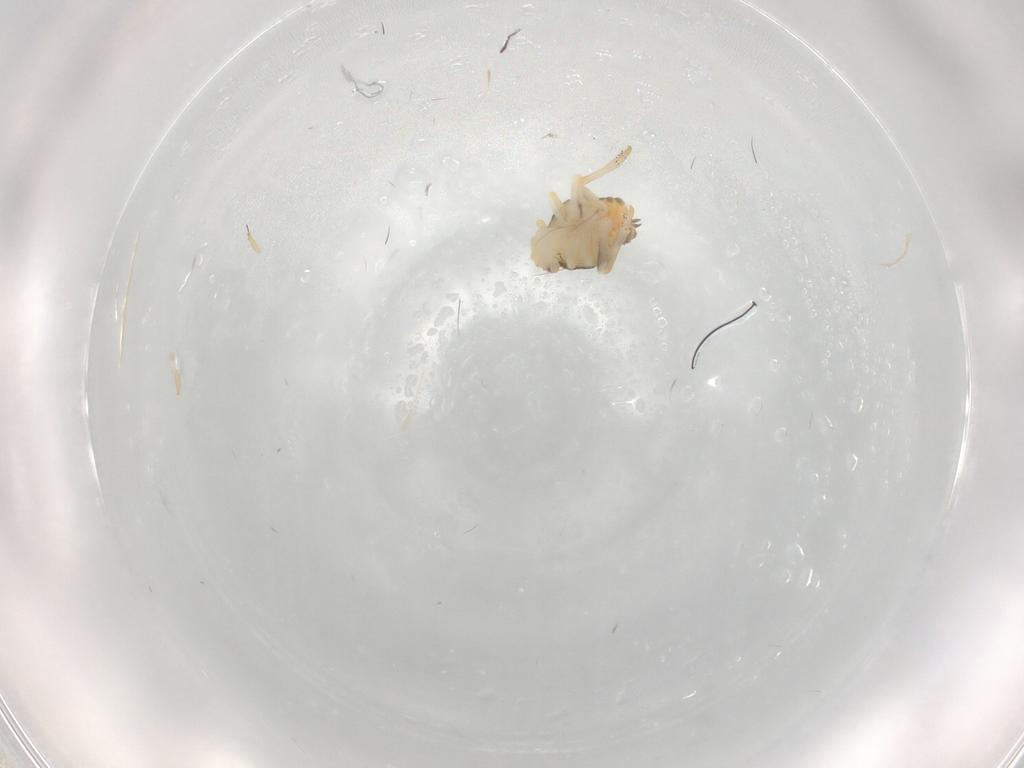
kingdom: Animalia
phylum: Arthropoda
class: Insecta
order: Hemiptera
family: Ricaniidae
